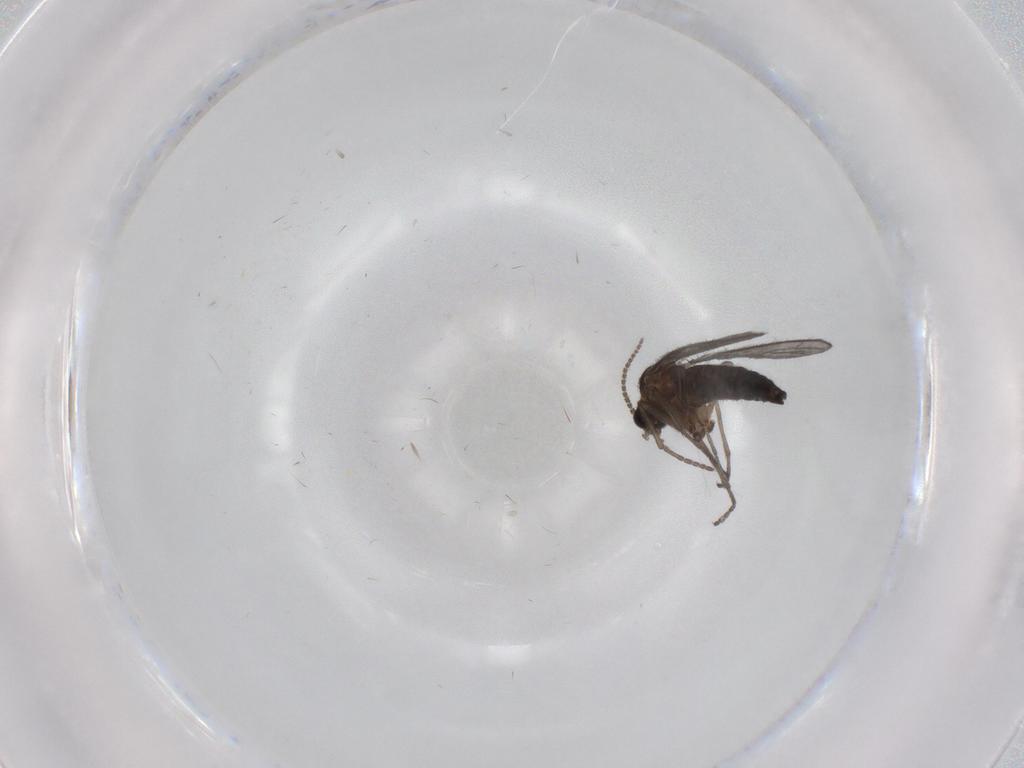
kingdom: Animalia
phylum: Arthropoda
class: Insecta
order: Diptera
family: Sciaridae
